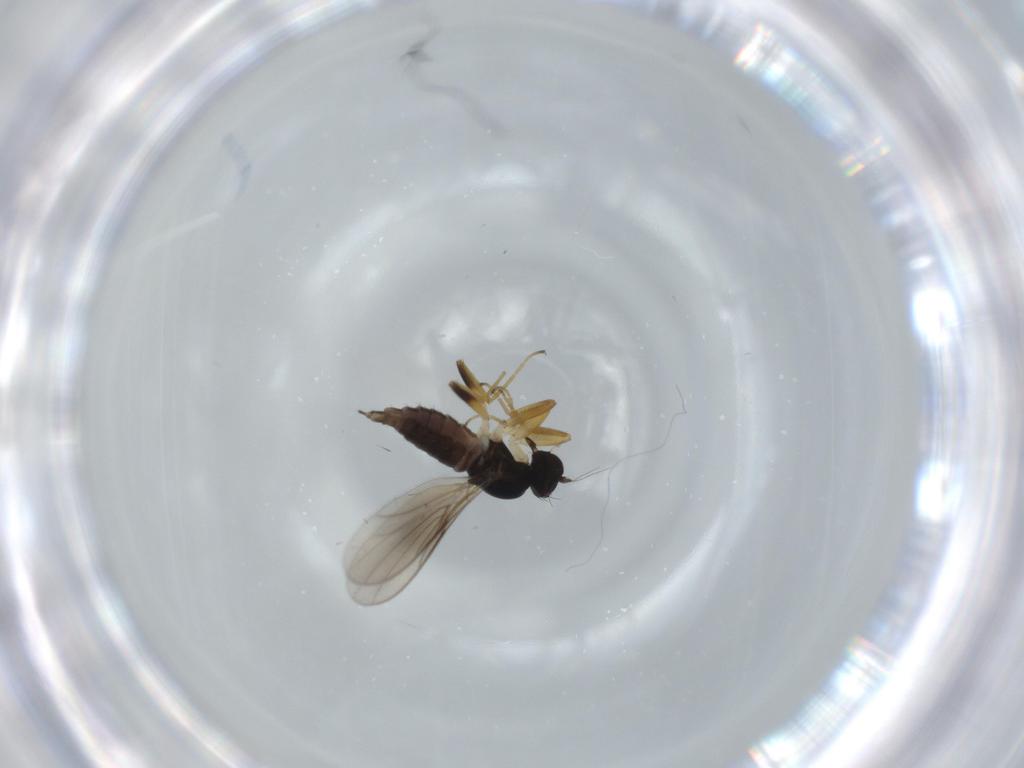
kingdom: Animalia
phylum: Arthropoda
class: Insecta
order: Diptera
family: Hybotidae
